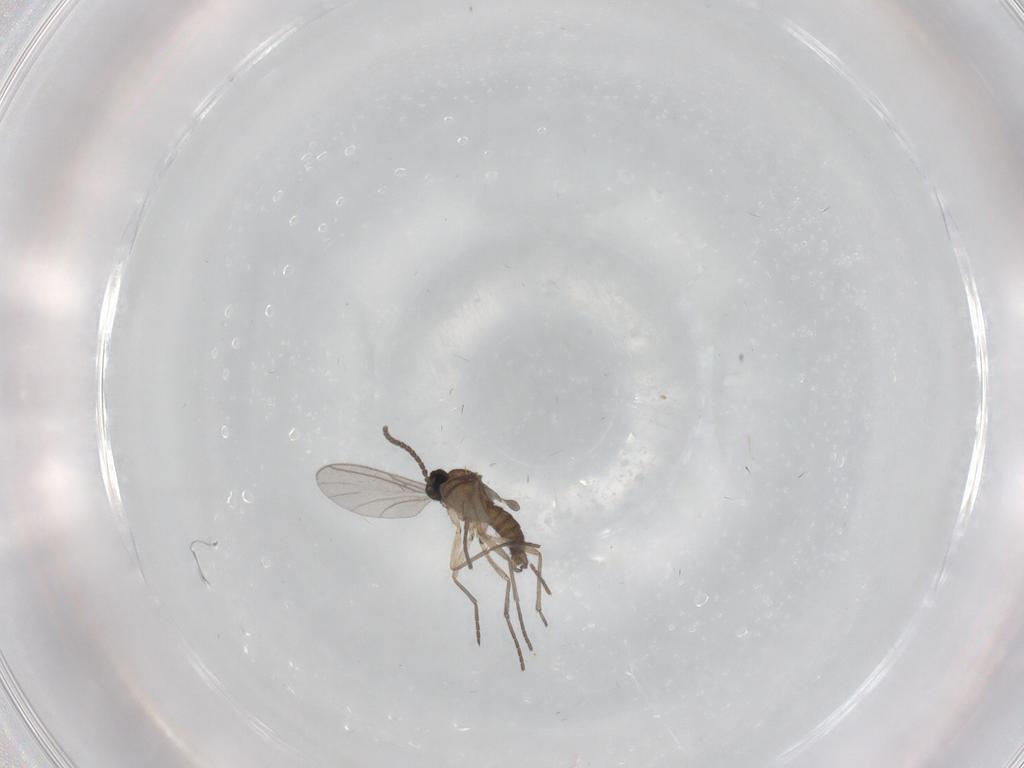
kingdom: Animalia
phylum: Arthropoda
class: Insecta
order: Diptera
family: Sciaridae
